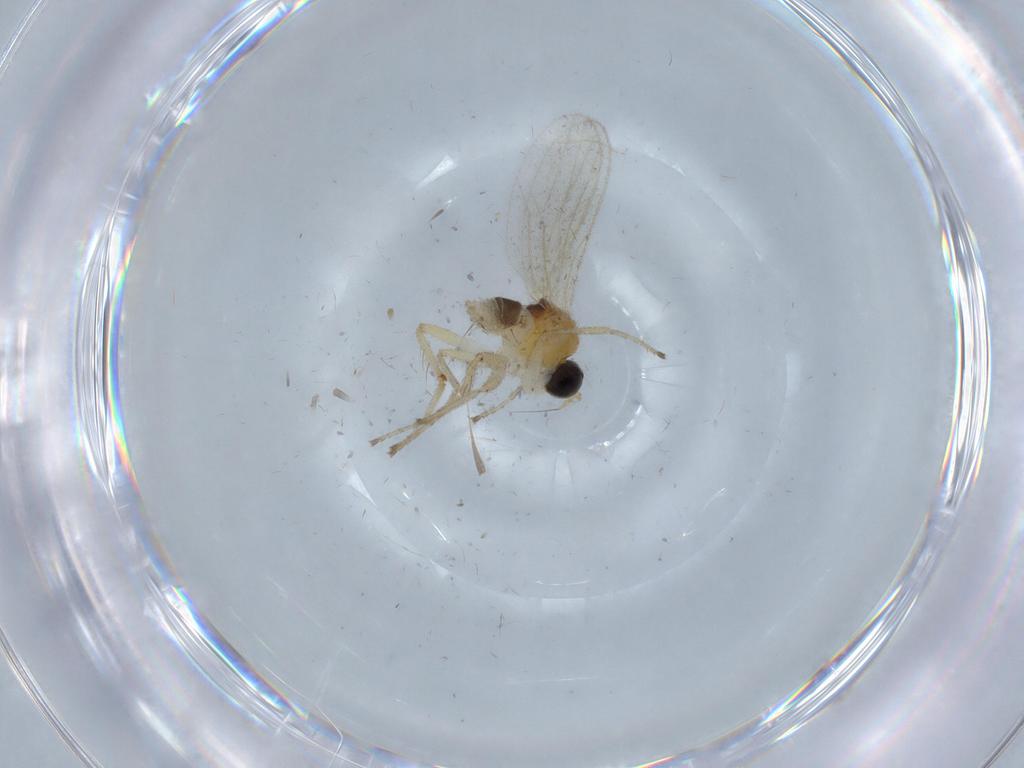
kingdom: Animalia
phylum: Arthropoda
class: Insecta
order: Diptera
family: Hybotidae
